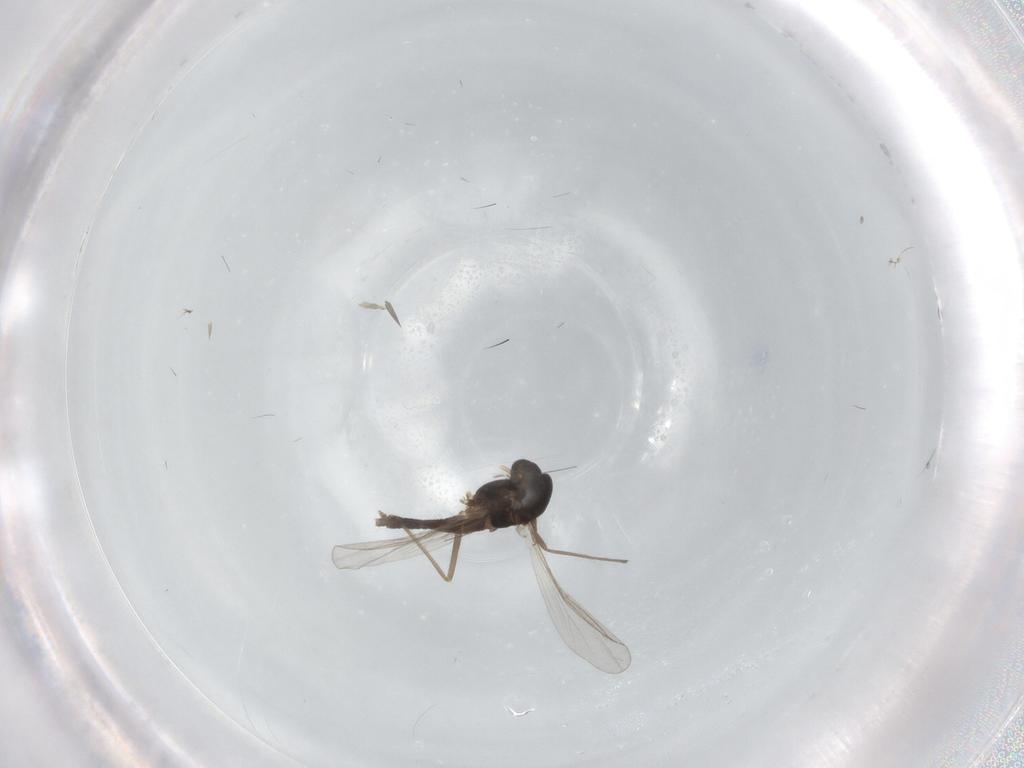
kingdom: Animalia
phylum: Arthropoda
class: Insecta
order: Diptera
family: Chironomidae
